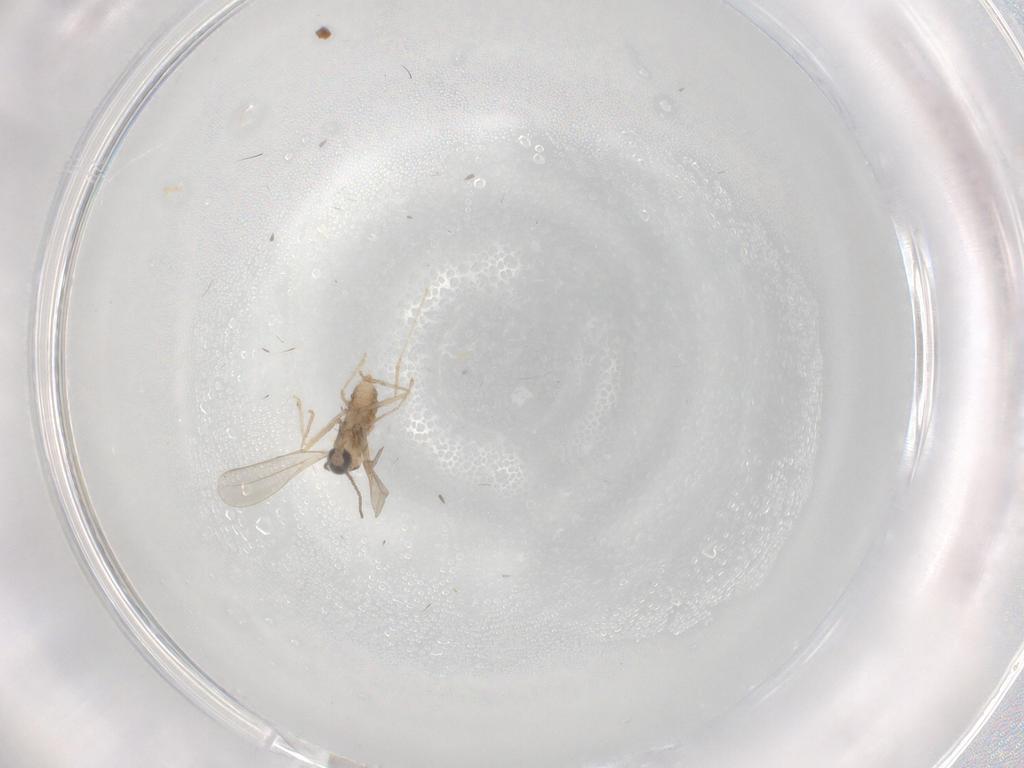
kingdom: Animalia
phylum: Arthropoda
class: Insecta
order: Diptera
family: Cecidomyiidae
